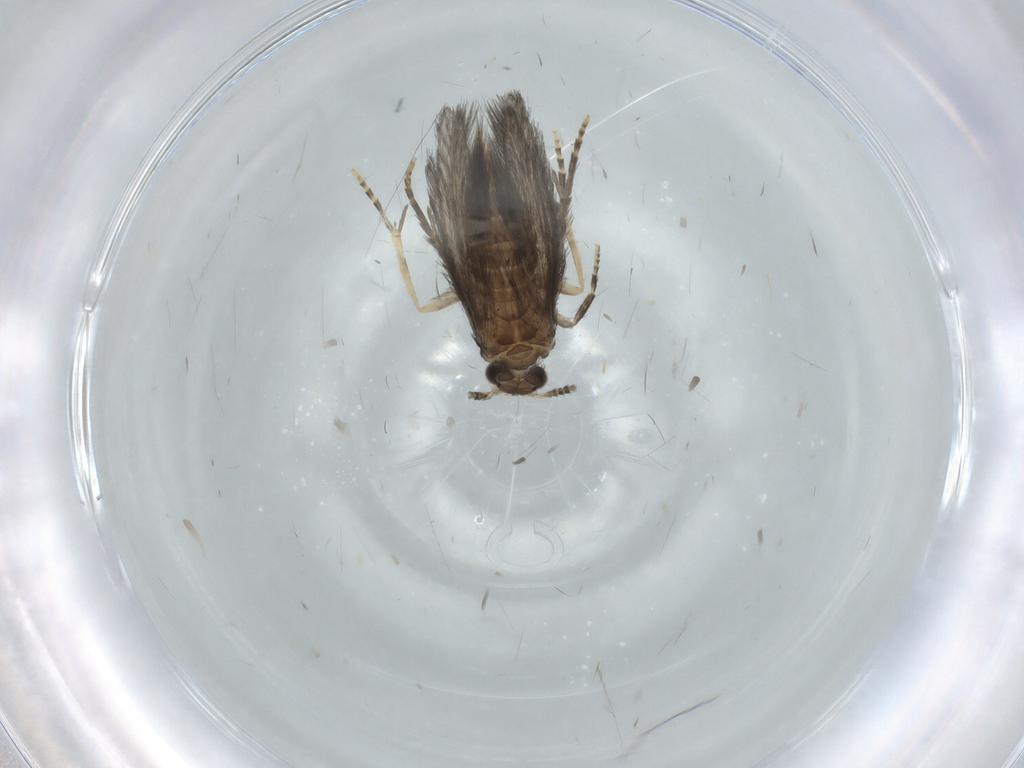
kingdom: Animalia
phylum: Arthropoda
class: Insecta
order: Trichoptera
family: Hydroptilidae
